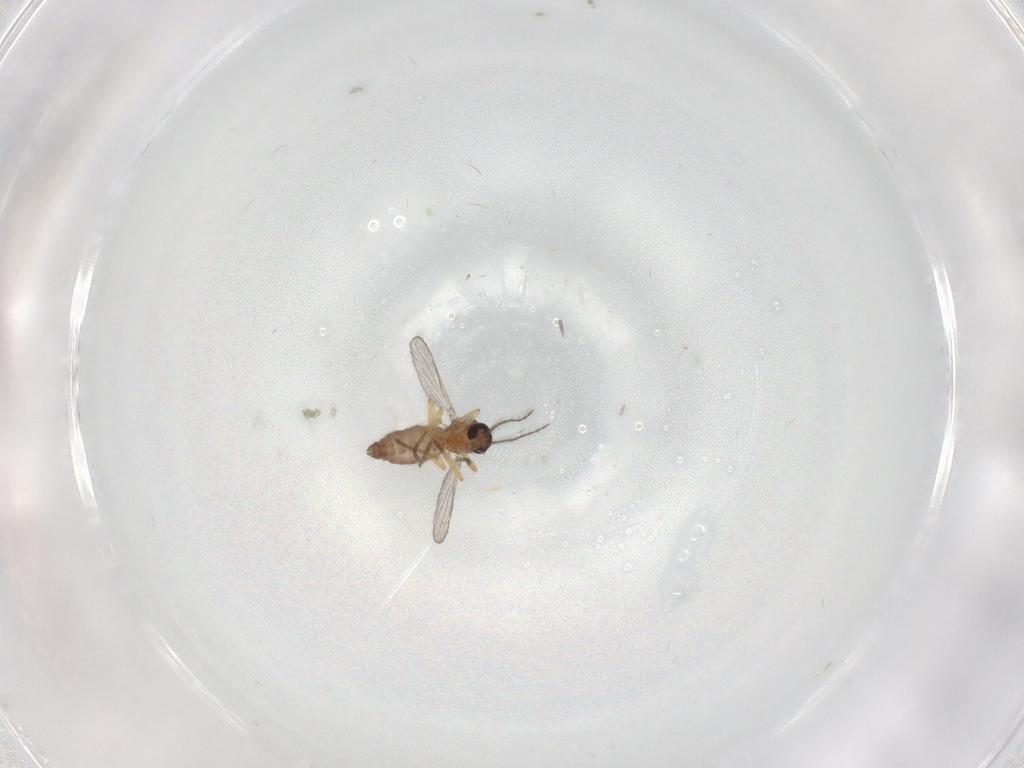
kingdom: Animalia
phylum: Arthropoda
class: Insecta
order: Diptera
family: Ceratopogonidae
